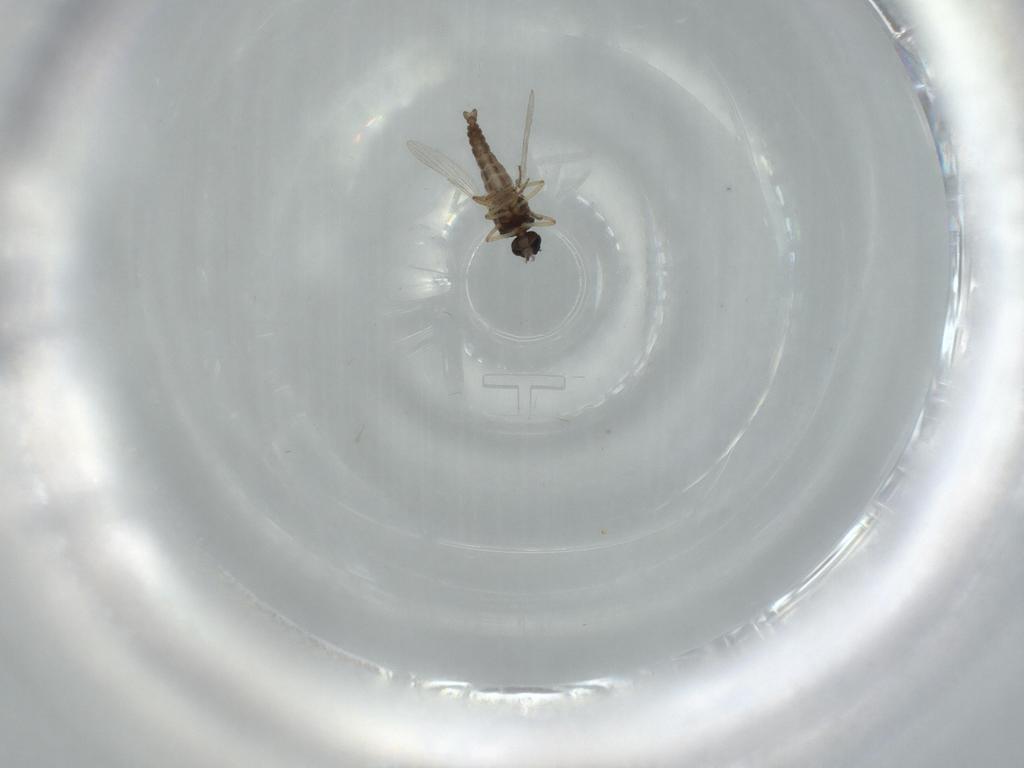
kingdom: Animalia
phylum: Arthropoda
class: Insecta
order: Diptera
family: Ceratopogonidae
